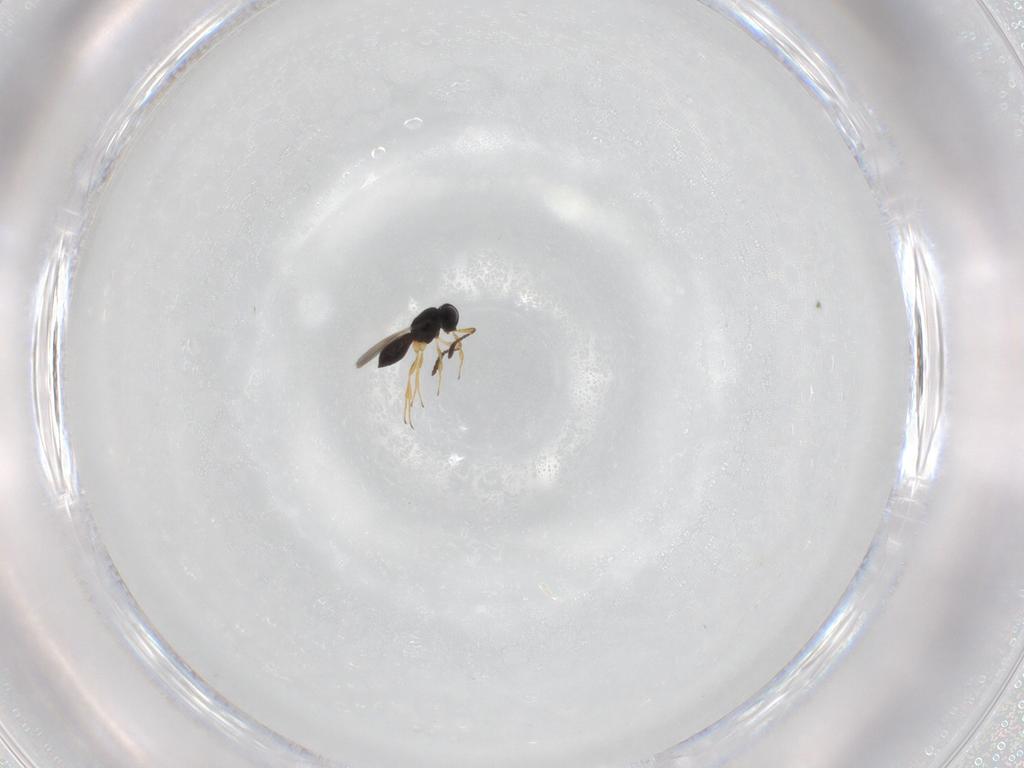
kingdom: Animalia
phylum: Arthropoda
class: Insecta
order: Hymenoptera
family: Scelionidae
